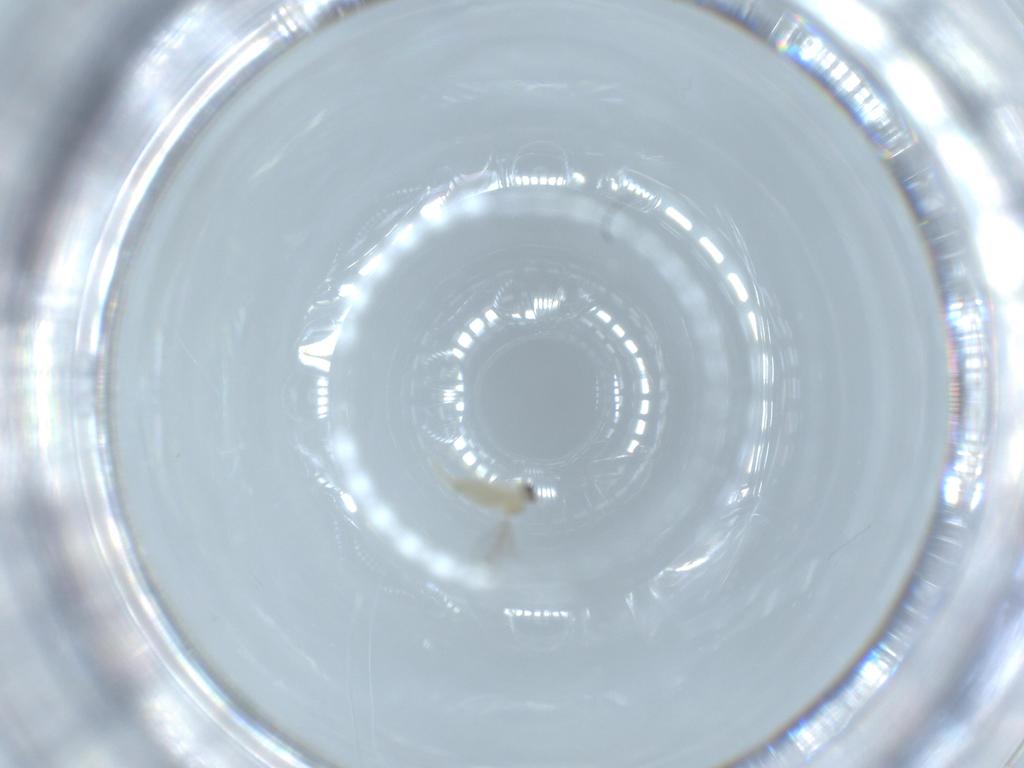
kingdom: Animalia
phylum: Arthropoda
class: Insecta
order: Diptera
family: Cecidomyiidae
